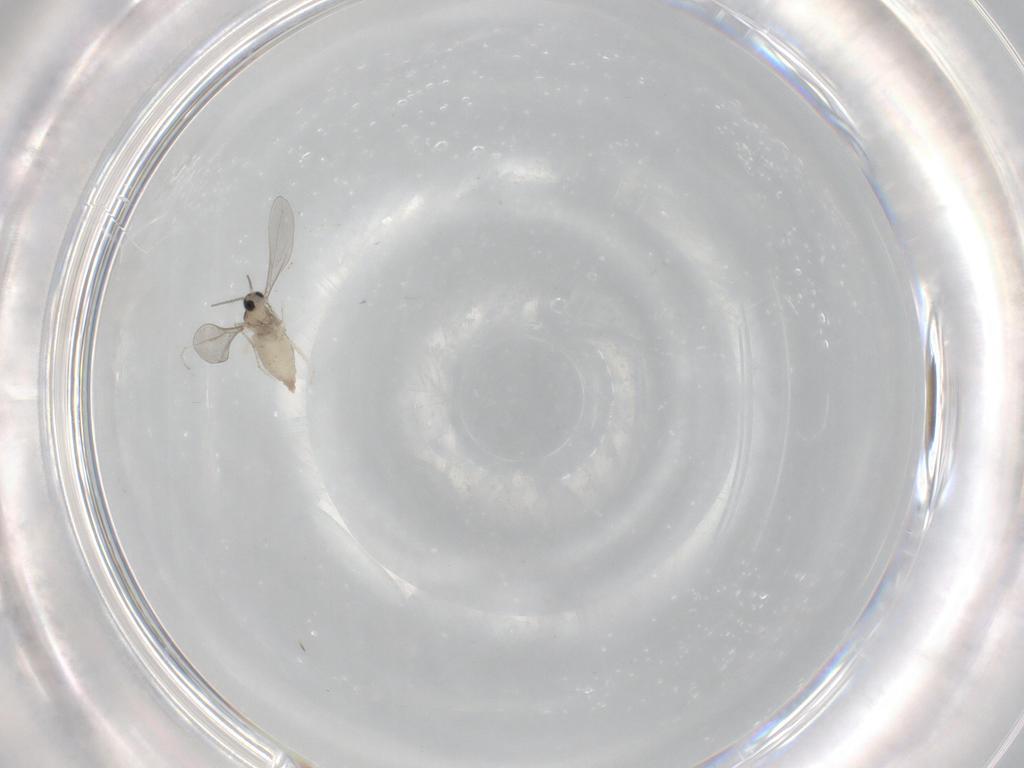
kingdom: Animalia
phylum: Arthropoda
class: Insecta
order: Diptera
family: Cecidomyiidae
